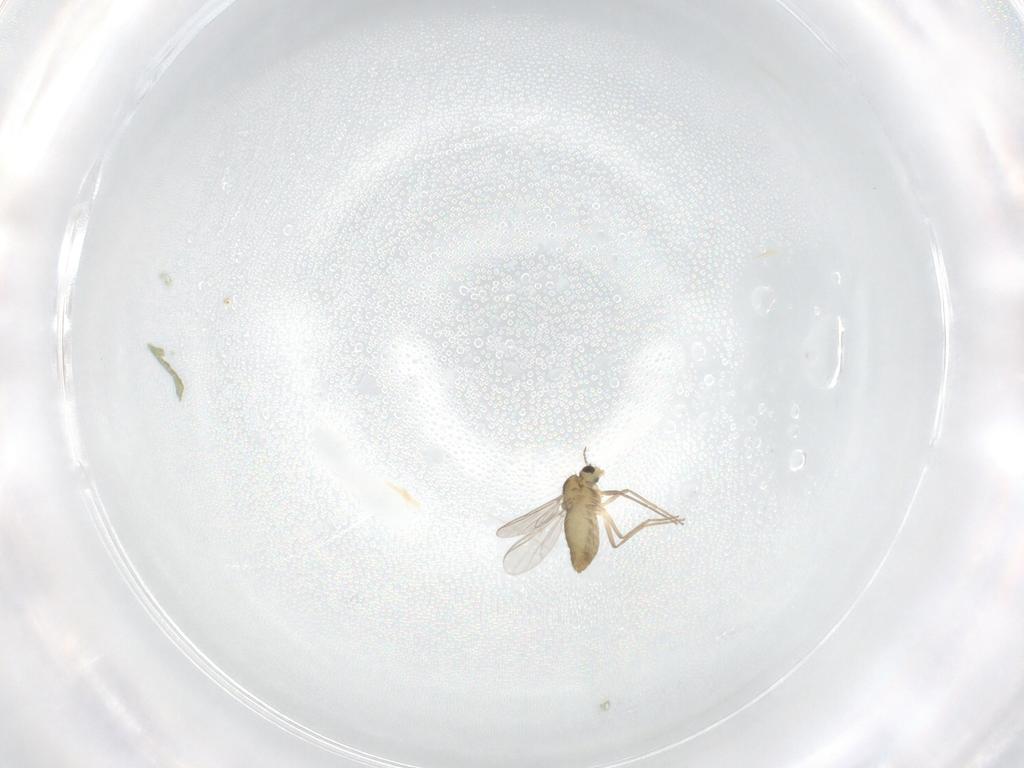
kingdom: Animalia
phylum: Arthropoda
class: Insecta
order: Diptera
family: Chironomidae
